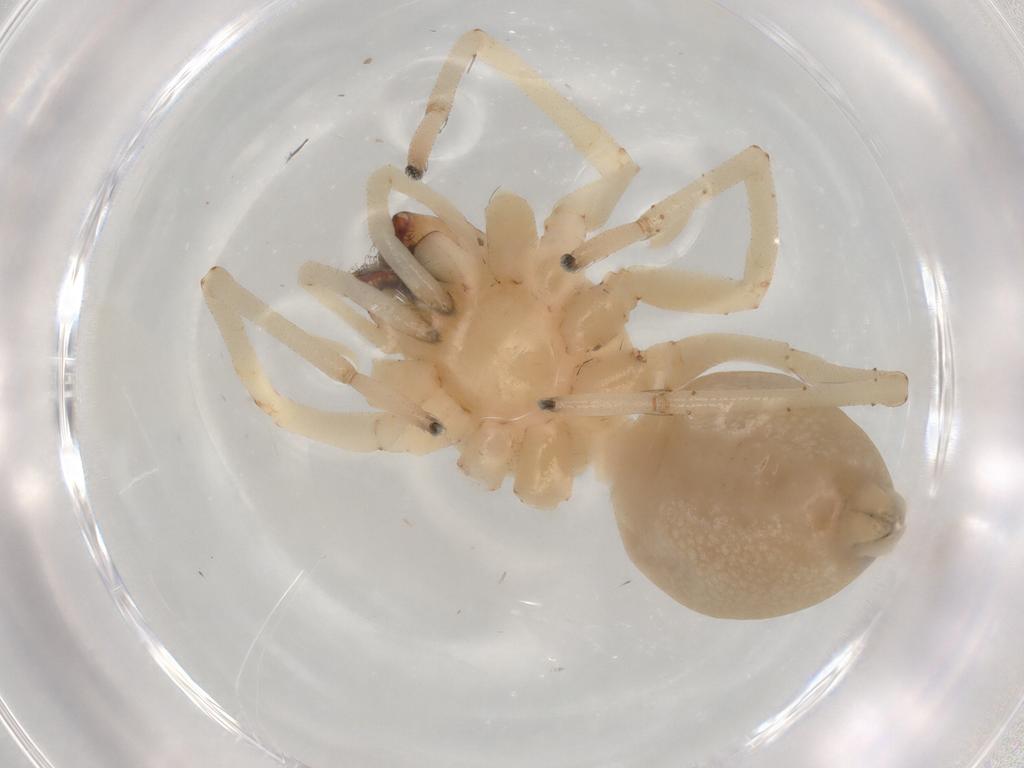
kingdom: Animalia
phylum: Arthropoda
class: Arachnida
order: Araneae
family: Cheiracanthiidae
